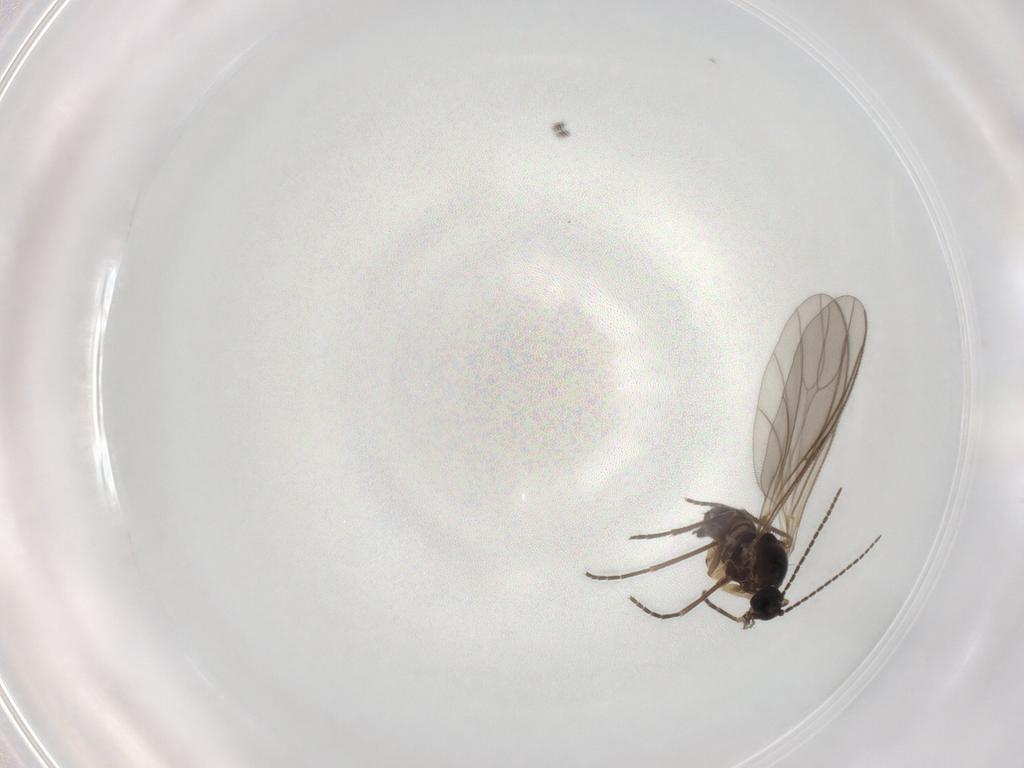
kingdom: Animalia
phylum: Arthropoda
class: Insecta
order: Diptera
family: Sciaridae
